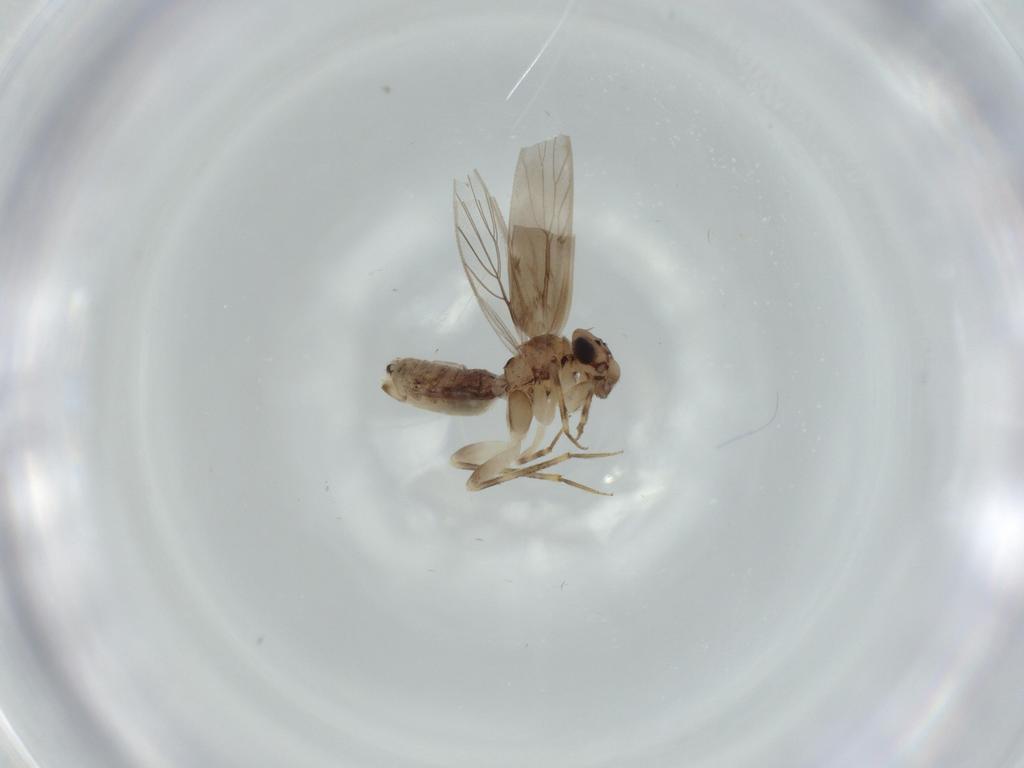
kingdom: Animalia
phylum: Arthropoda
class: Insecta
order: Psocodea
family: Lepidopsocidae
